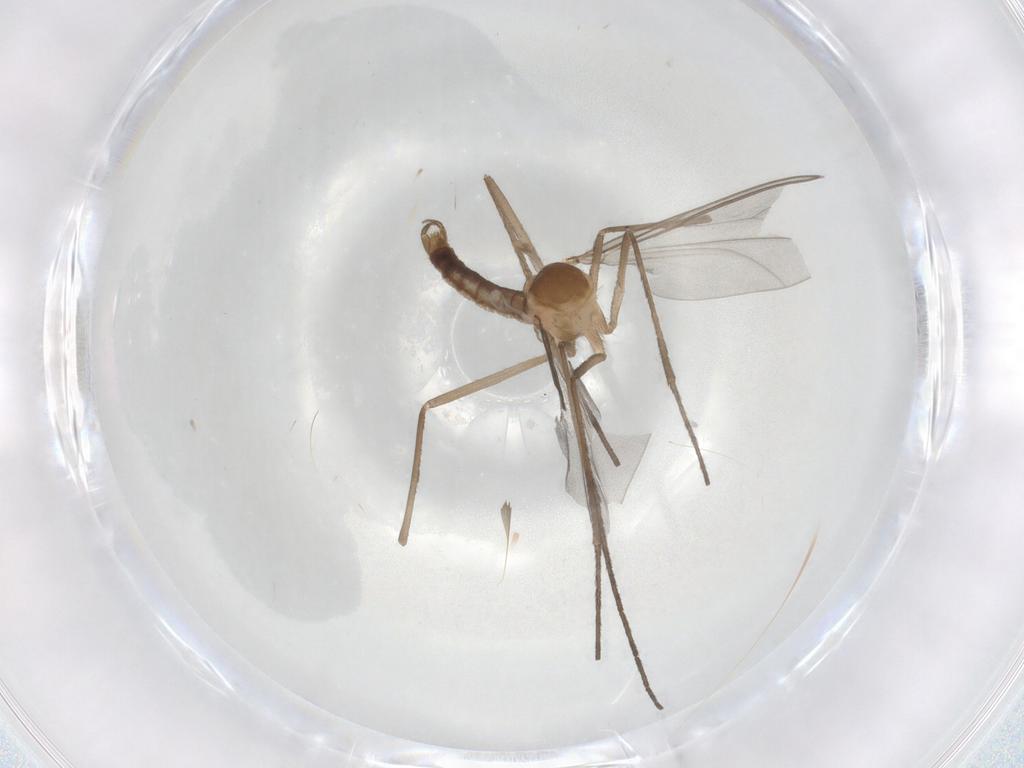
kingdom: Animalia
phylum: Arthropoda
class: Insecta
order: Diptera
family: Cecidomyiidae
